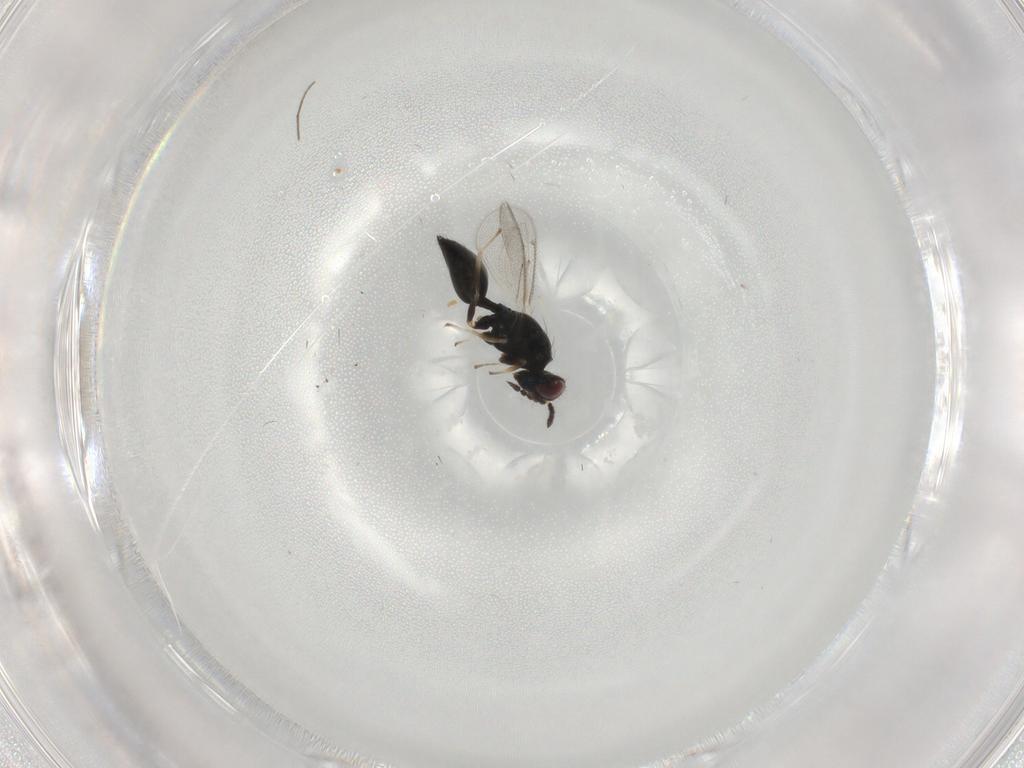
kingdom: Animalia
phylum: Arthropoda
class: Insecta
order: Hymenoptera
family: Eulophidae
